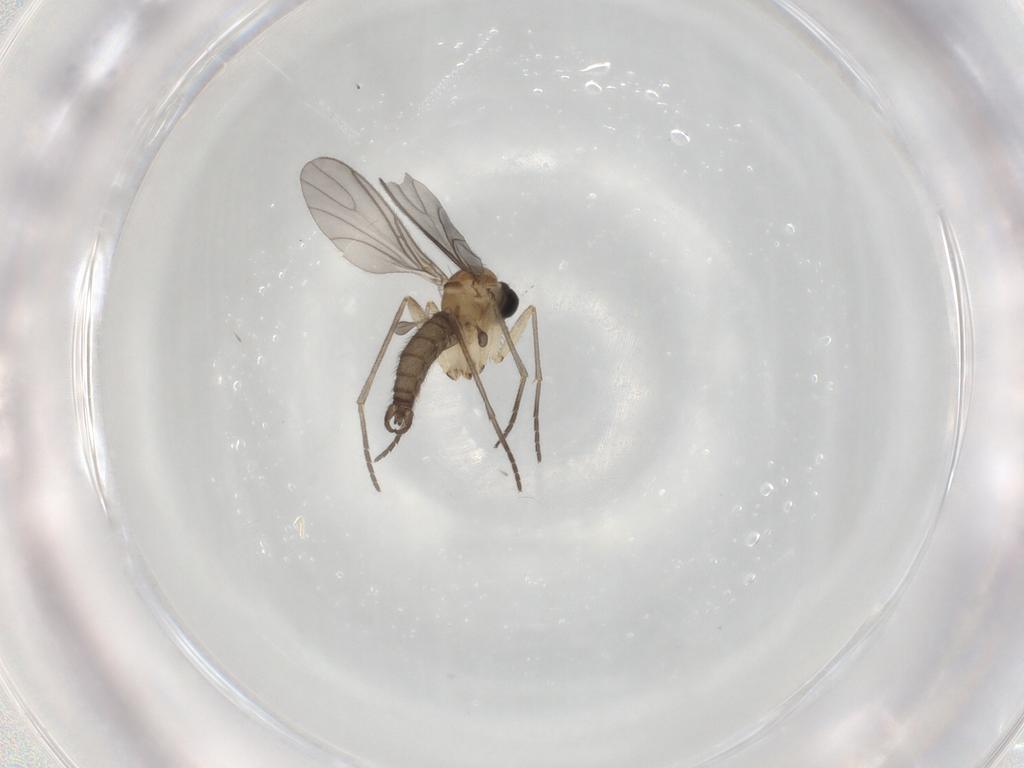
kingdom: Animalia
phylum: Arthropoda
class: Insecta
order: Diptera
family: Sciaridae
